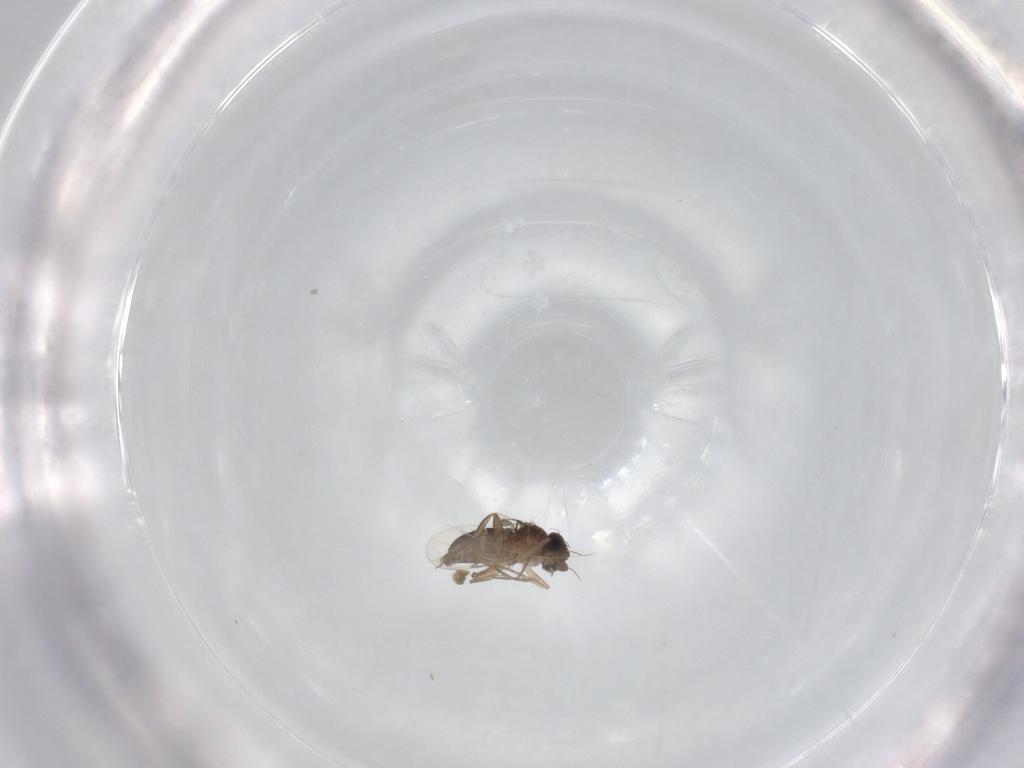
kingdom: Animalia
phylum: Arthropoda
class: Insecta
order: Diptera
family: Phoridae
